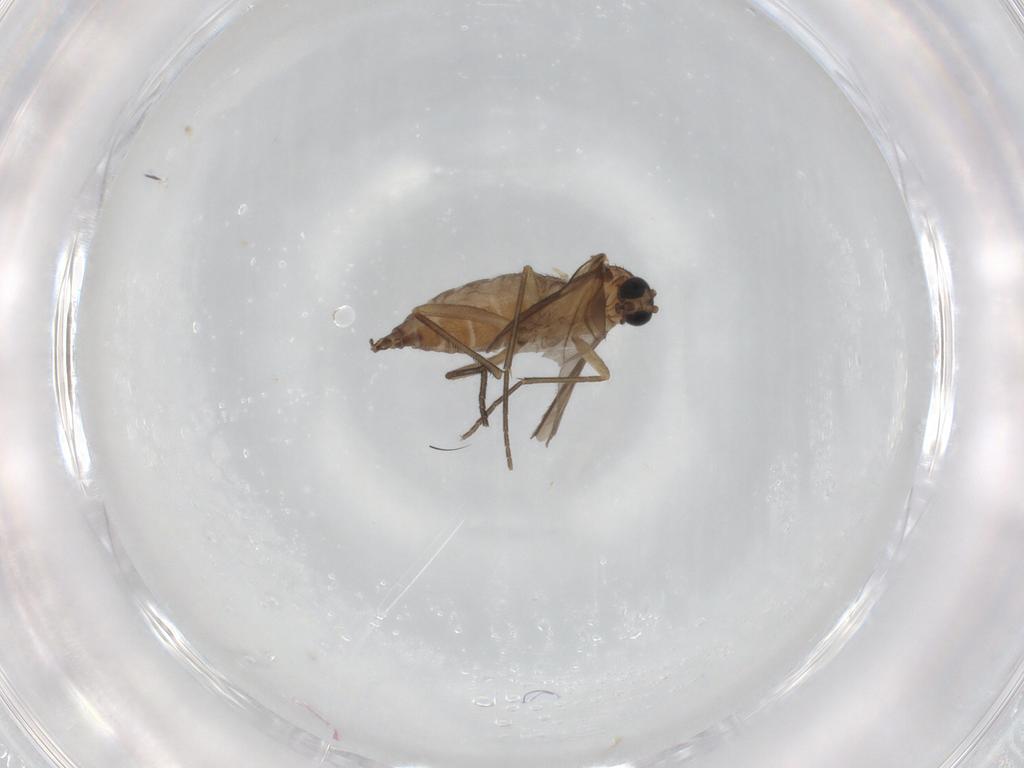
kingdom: Animalia
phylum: Arthropoda
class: Insecta
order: Diptera
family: Sciaridae
